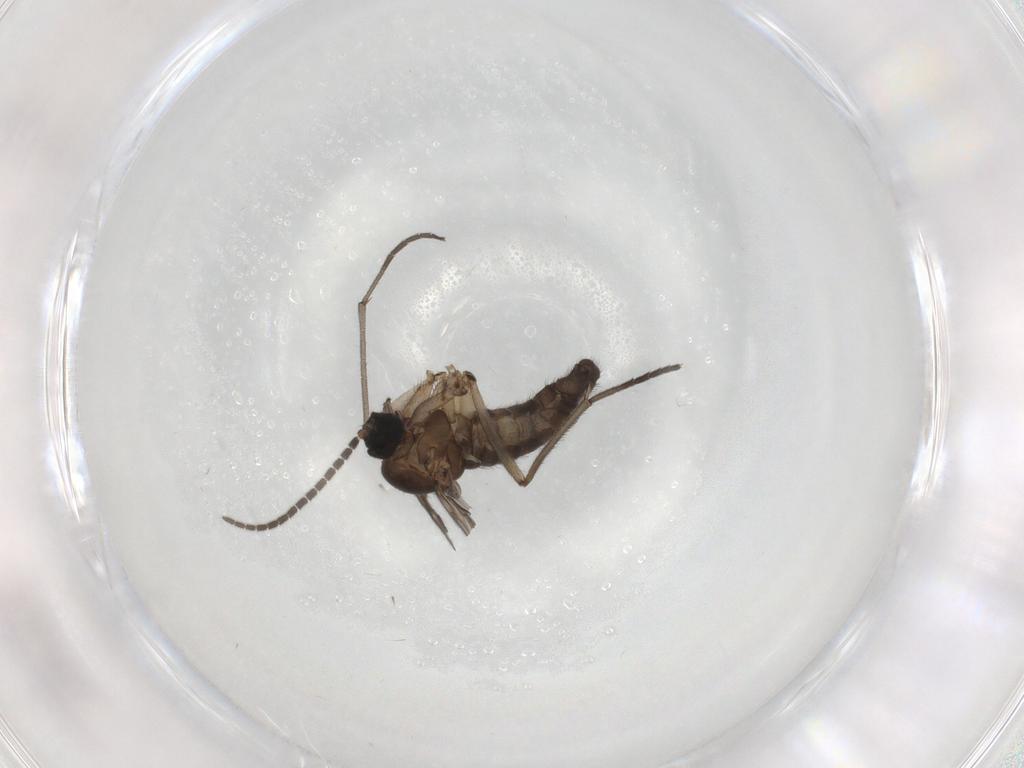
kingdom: Animalia
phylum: Arthropoda
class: Insecta
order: Diptera
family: Sciaridae
